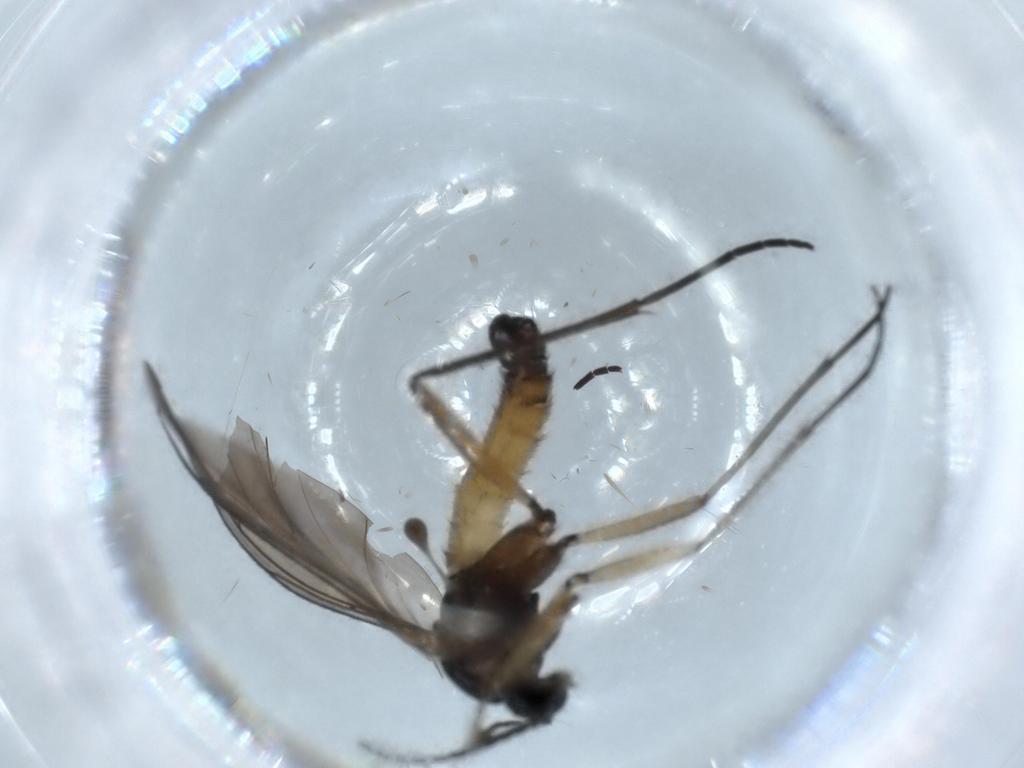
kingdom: Animalia
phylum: Arthropoda
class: Insecta
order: Diptera
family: Sciaridae
